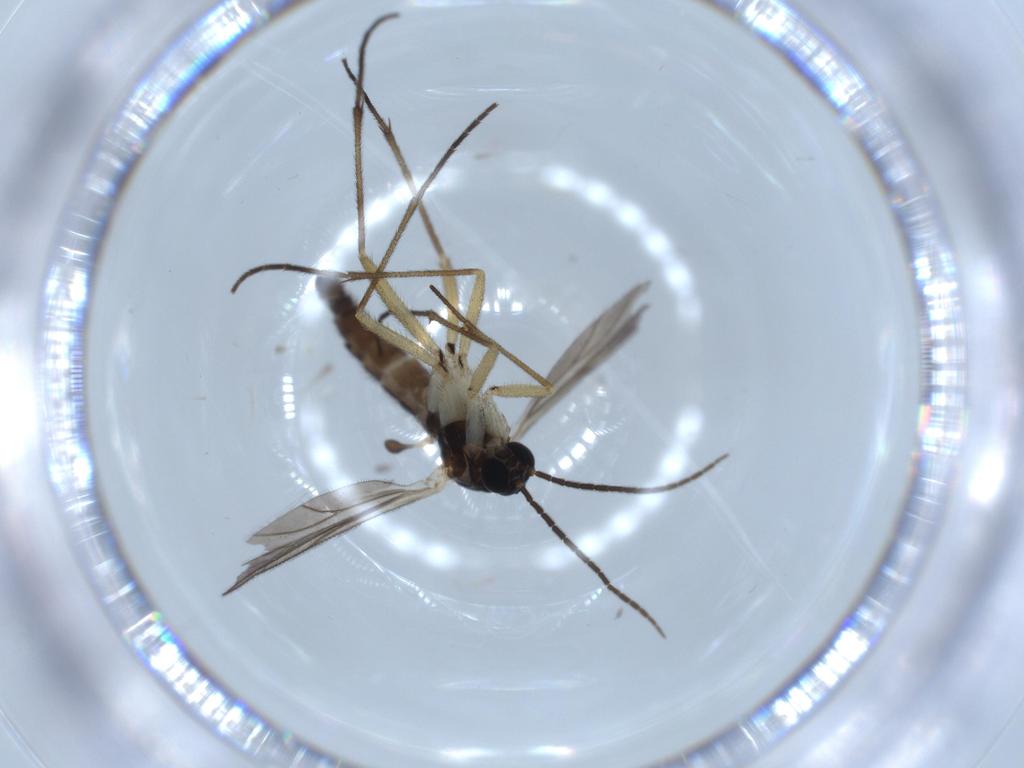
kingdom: Animalia
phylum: Arthropoda
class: Insecta
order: Diptera
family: Sciaridae
